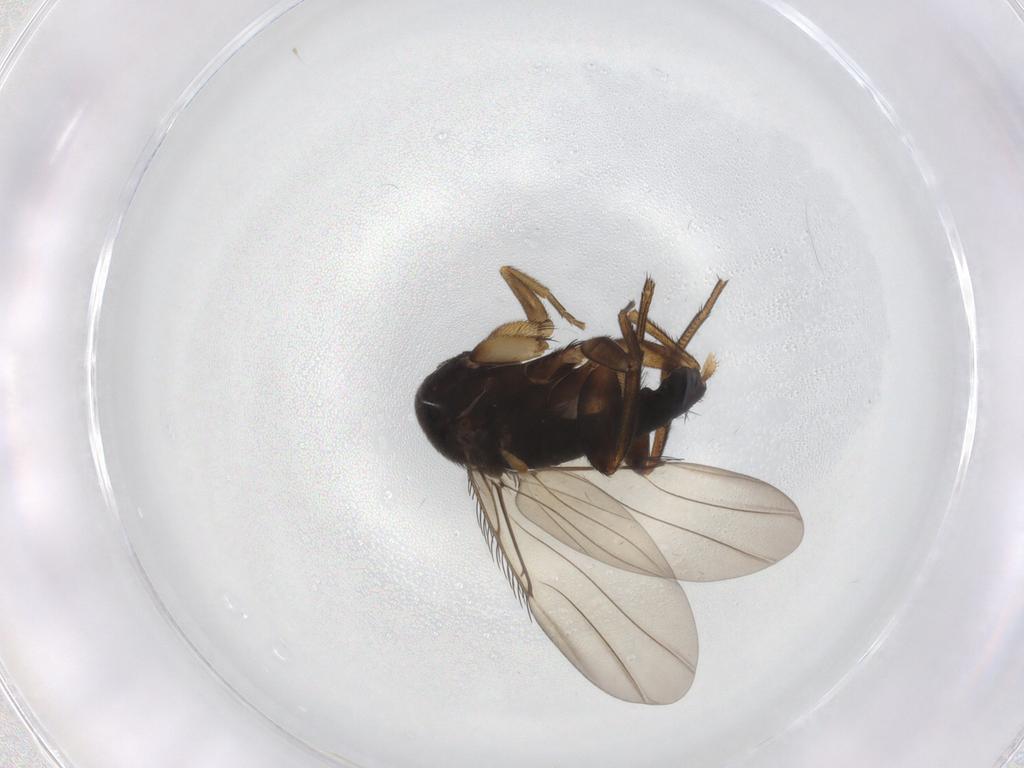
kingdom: Animalia
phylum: Arthropoda
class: Insecta
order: Diptera
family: Phoridae
